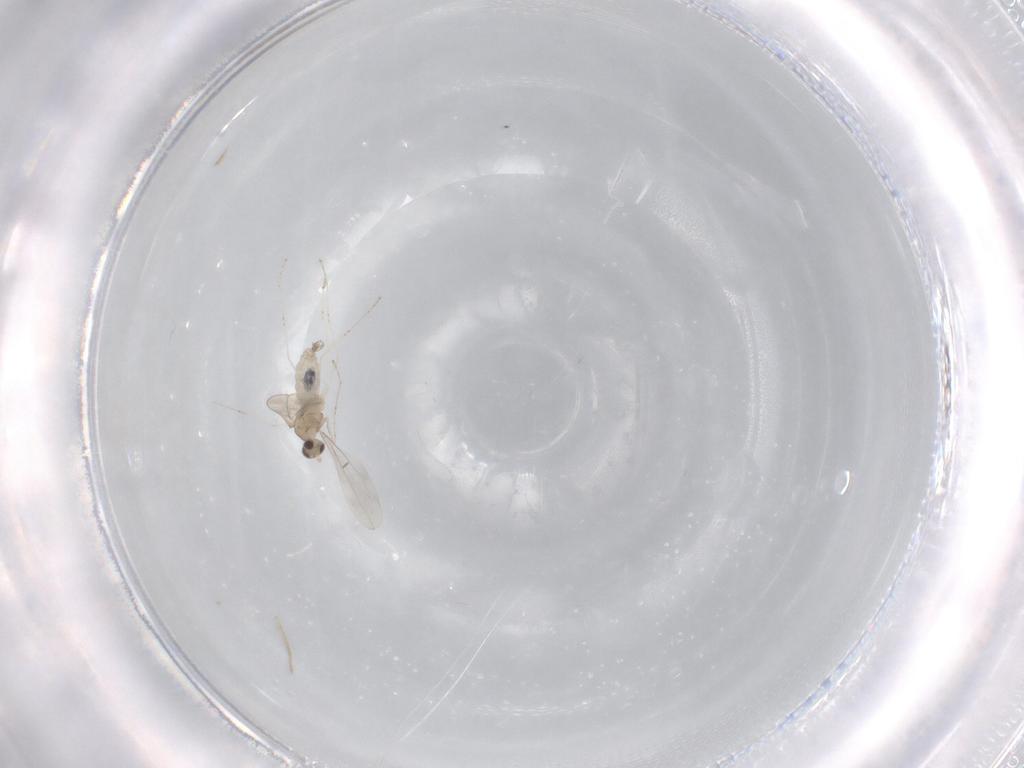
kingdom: Animalia
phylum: Arthropoda
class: Insecta
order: Diptera
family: Cecidomyiidae
